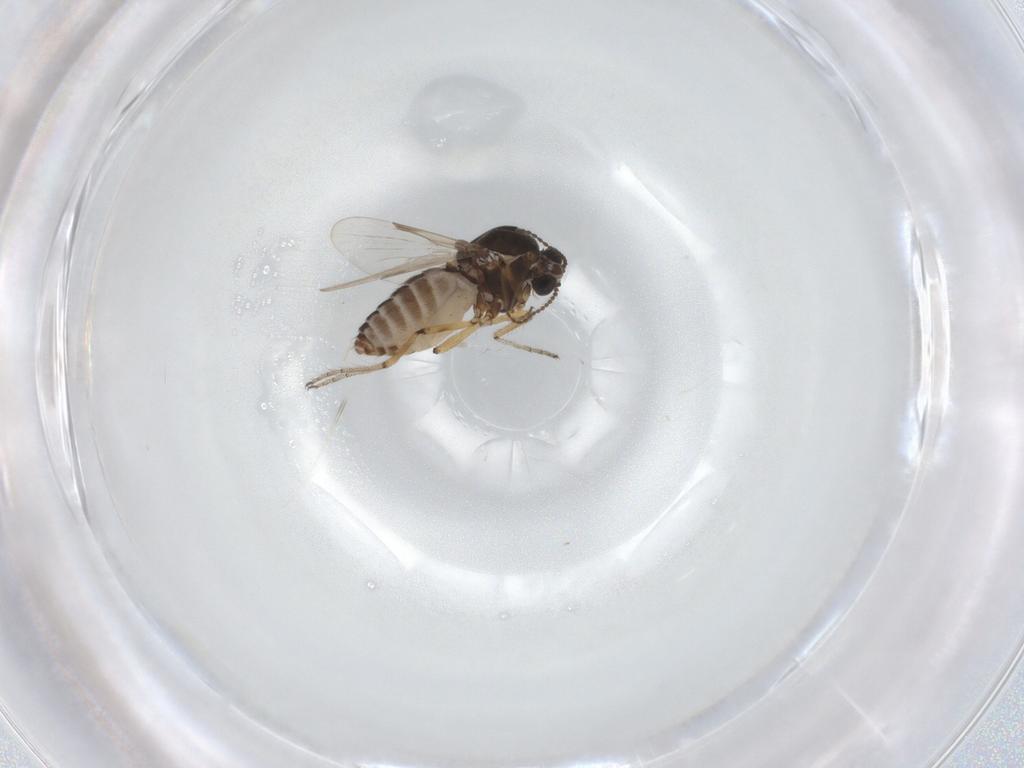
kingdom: Animalia
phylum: Arthropoda
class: Insecta
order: Diptera
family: Ceratopogonidae
